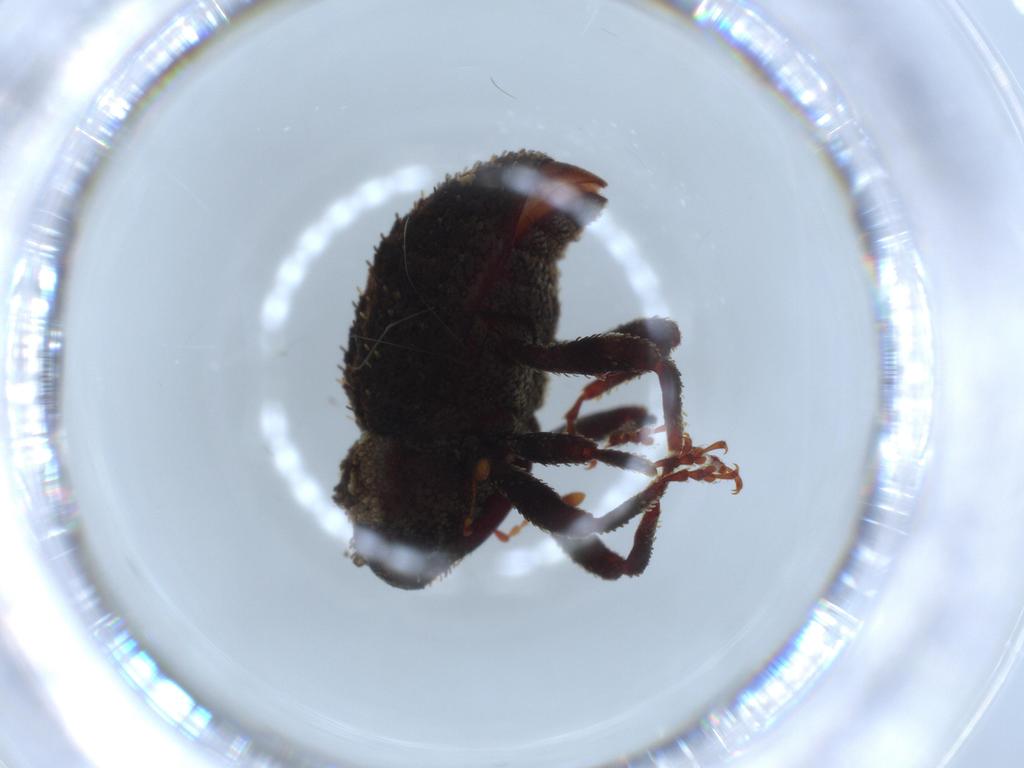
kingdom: Animalia
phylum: Arthropoda
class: Insecta
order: Coleoptera
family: Curculionidae
